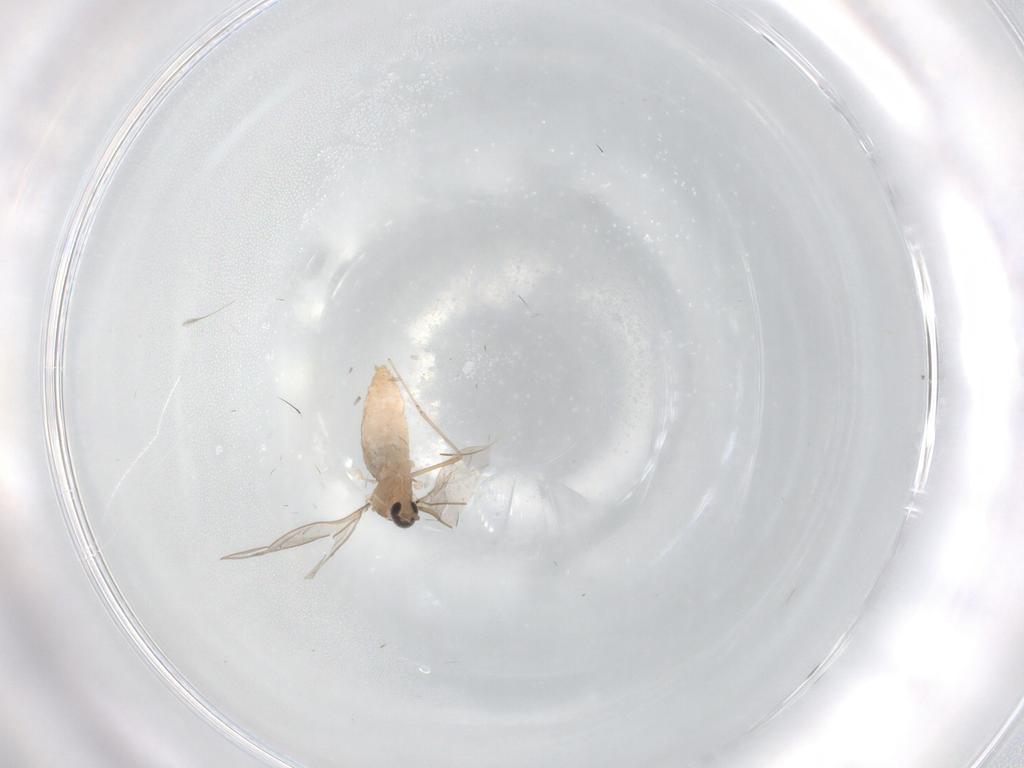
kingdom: Animalia
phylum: Arthropoda
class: Insecta
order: Diptera
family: Cecidomyiidae
